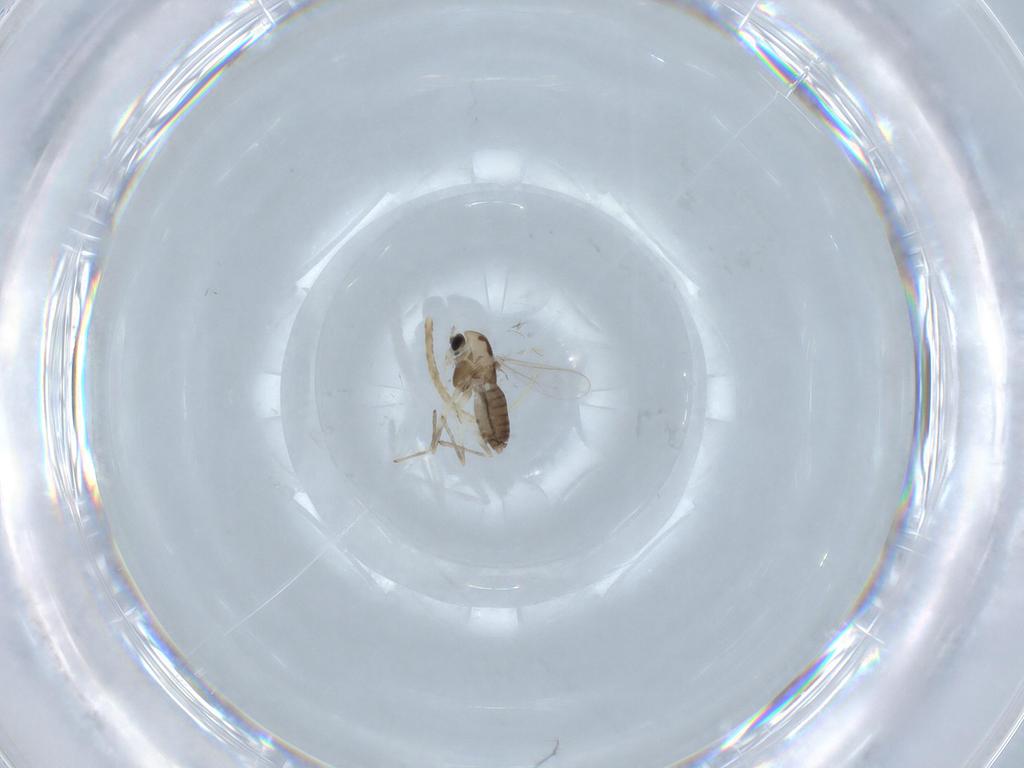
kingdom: Animalia
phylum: Arthropoda
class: Insecta
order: Diptera
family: Chironomidae
